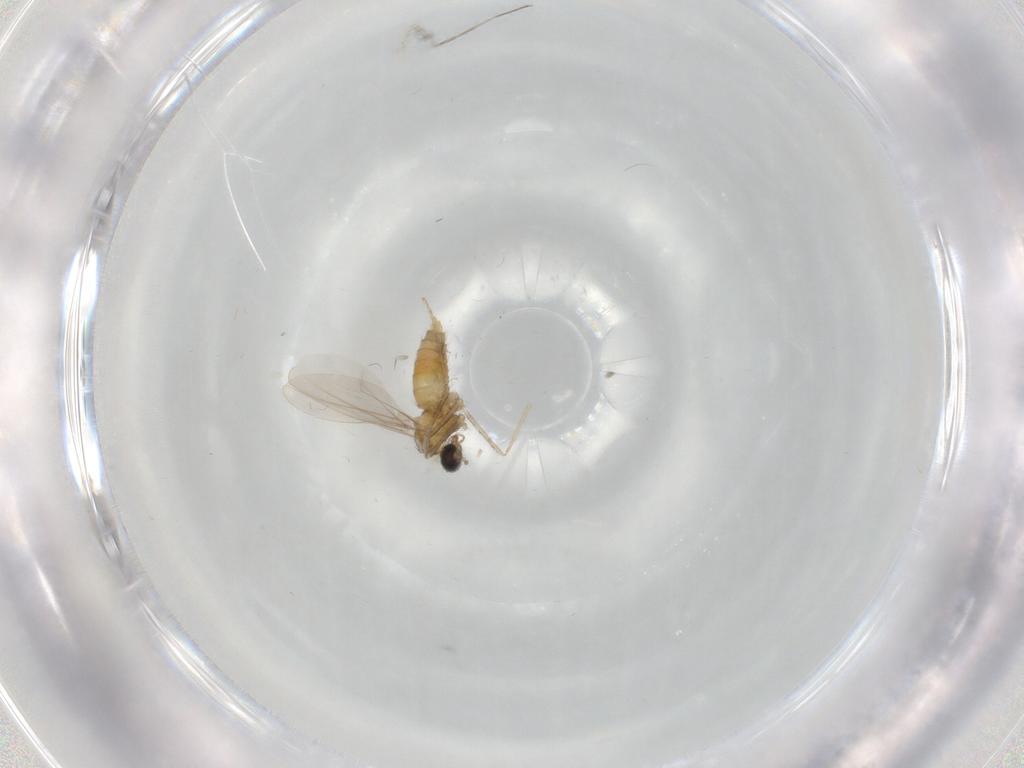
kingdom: Animalia
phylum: Arthropoda
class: Insecta
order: Diptera
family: Cecidomyiidae
